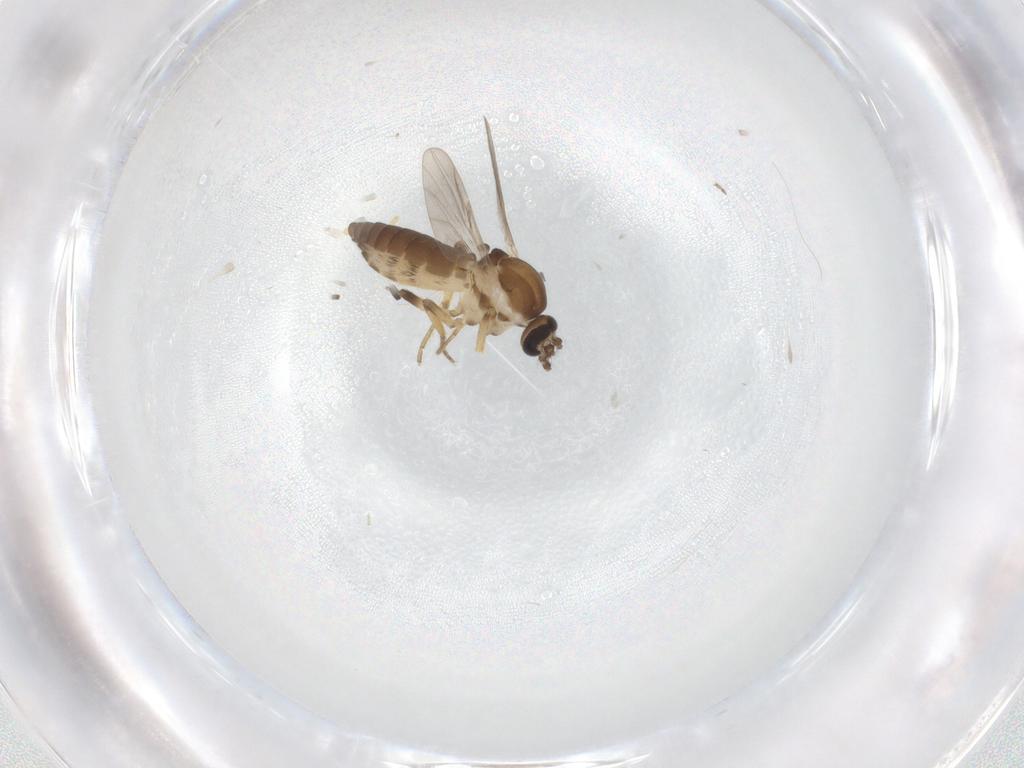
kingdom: Animalia
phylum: Arthropoda
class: Insecta
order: Diptera
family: Ceratopogonidae
